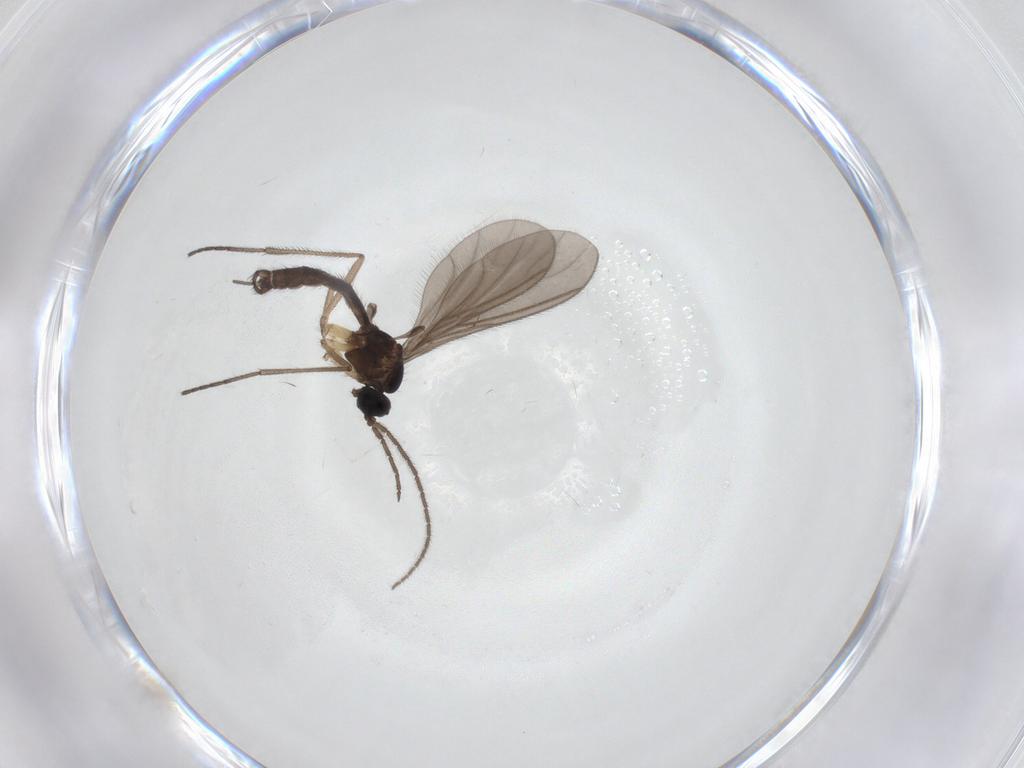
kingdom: Animalia
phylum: Arthropoda
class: Insecta
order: Diptera
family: Cecidomyiidae
